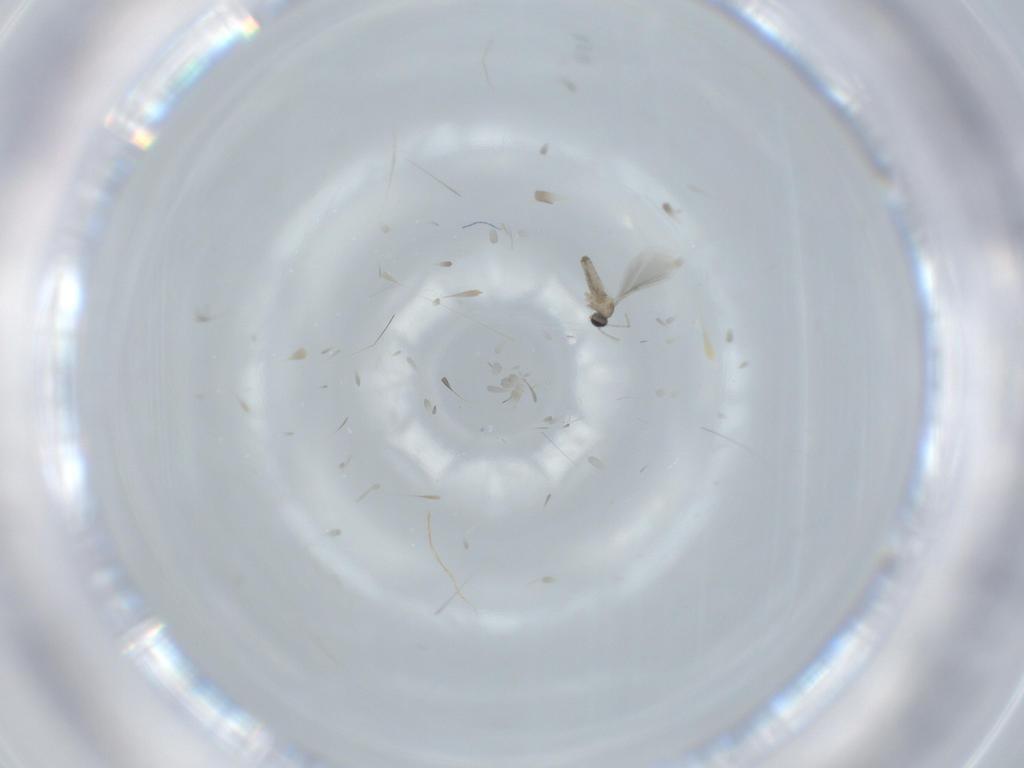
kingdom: Animalia
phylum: Arthropoda
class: Insecta
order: Diptera
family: Cecidomyiidae
